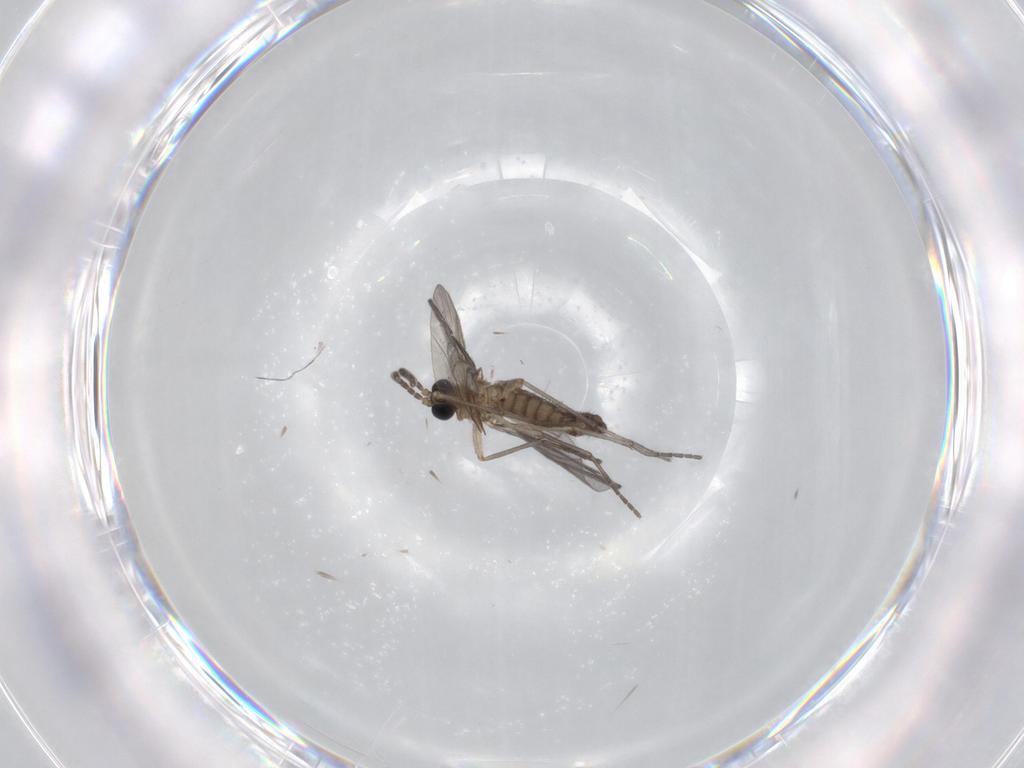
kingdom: Animalia
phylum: Arthropoda
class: Insecta
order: Diptera
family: Sciaridae
